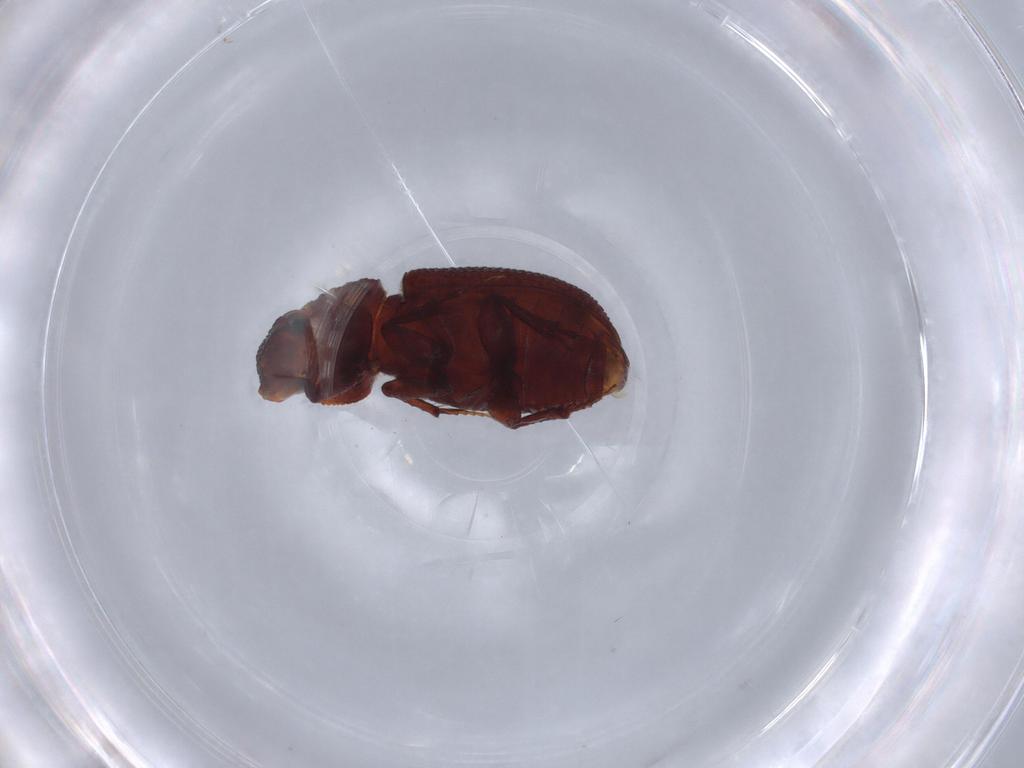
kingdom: Animalia
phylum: Arthropoda
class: Insecta
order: Coleoptera
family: Scarabaeidae
